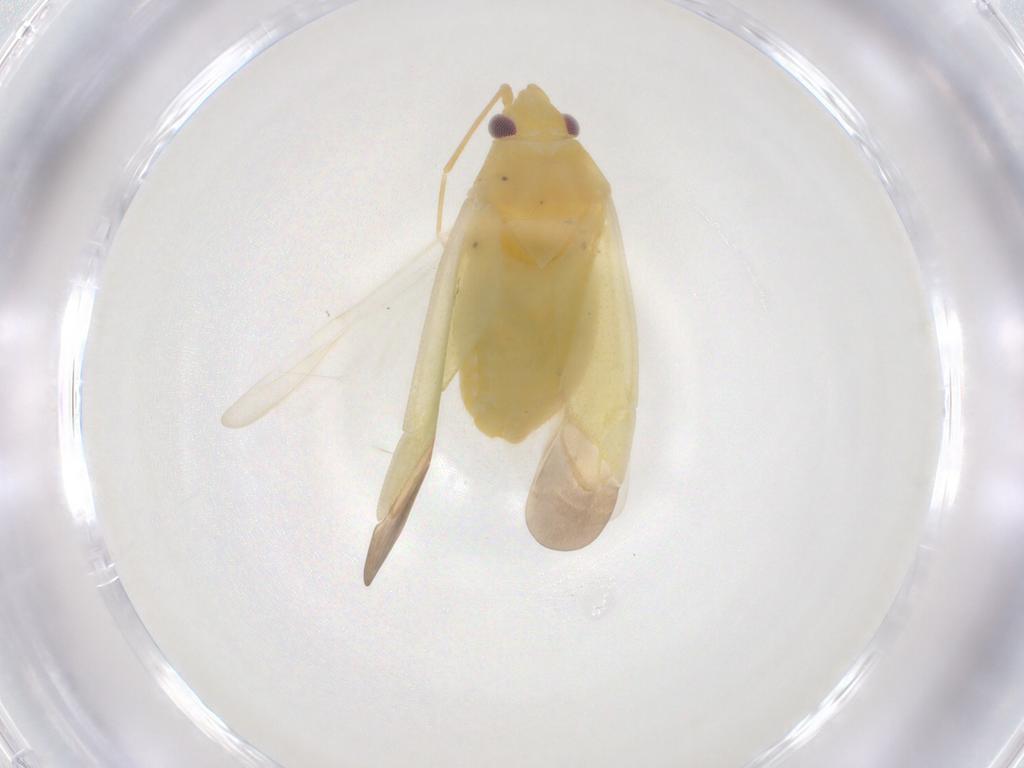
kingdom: Animalia
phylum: Arthropoda
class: Insecta
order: Hemiptera
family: Miridae
